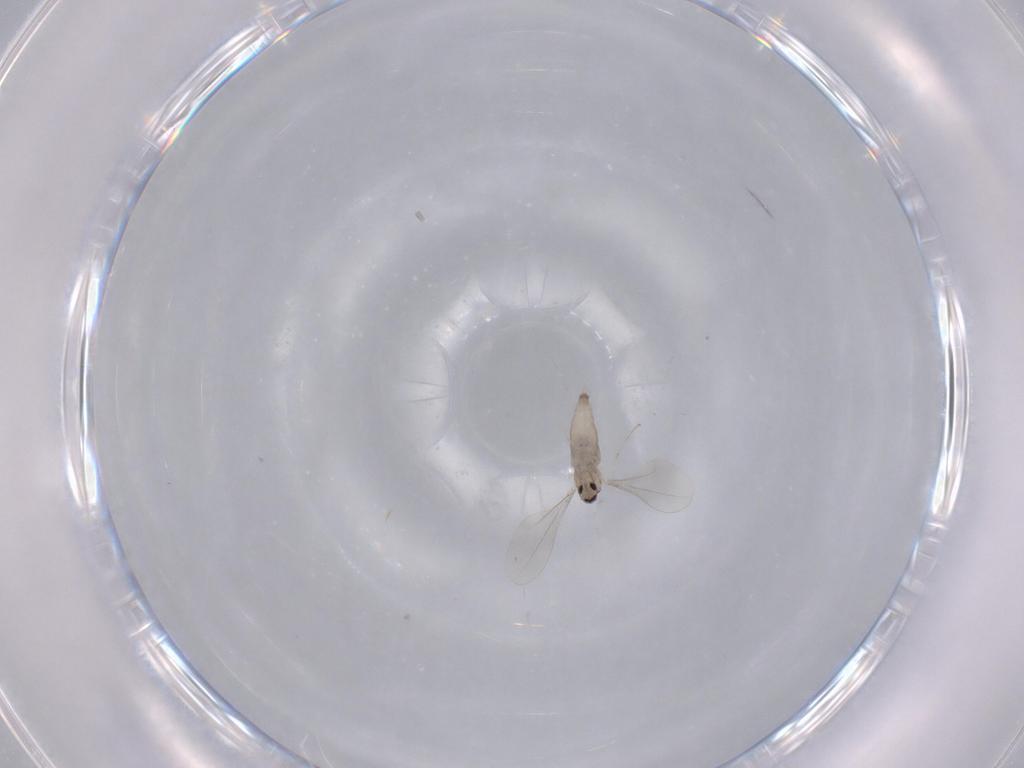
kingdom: Animalia
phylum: Arthropoda
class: Insecta
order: Diptera
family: Cecidomyiidae
